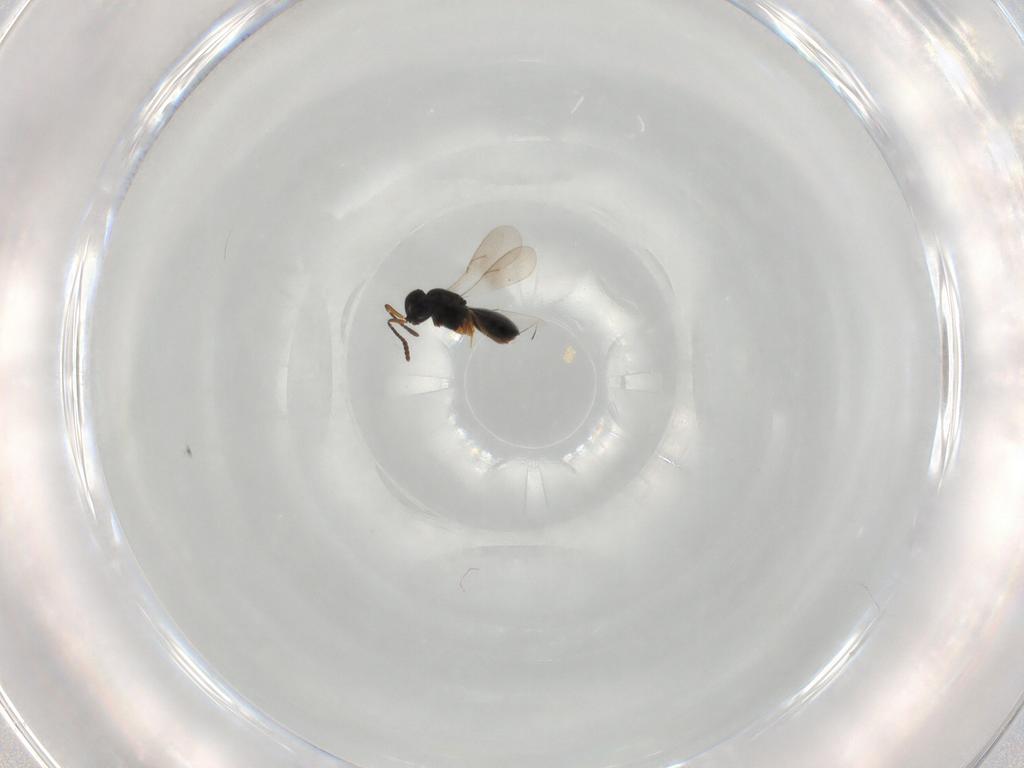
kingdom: Animalia
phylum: Arthropoda
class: Insecta
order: Hymenoptera
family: Scelionidae
